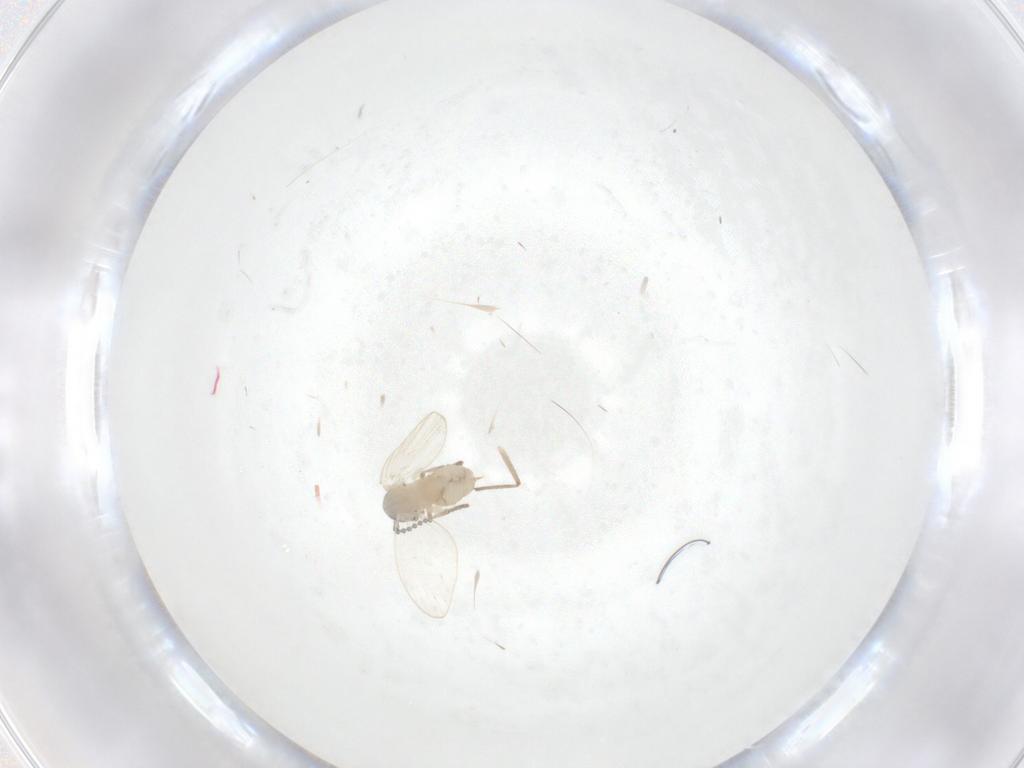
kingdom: Animalia
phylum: Arthropoda
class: Insecta
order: Diptera
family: Psychodidae
